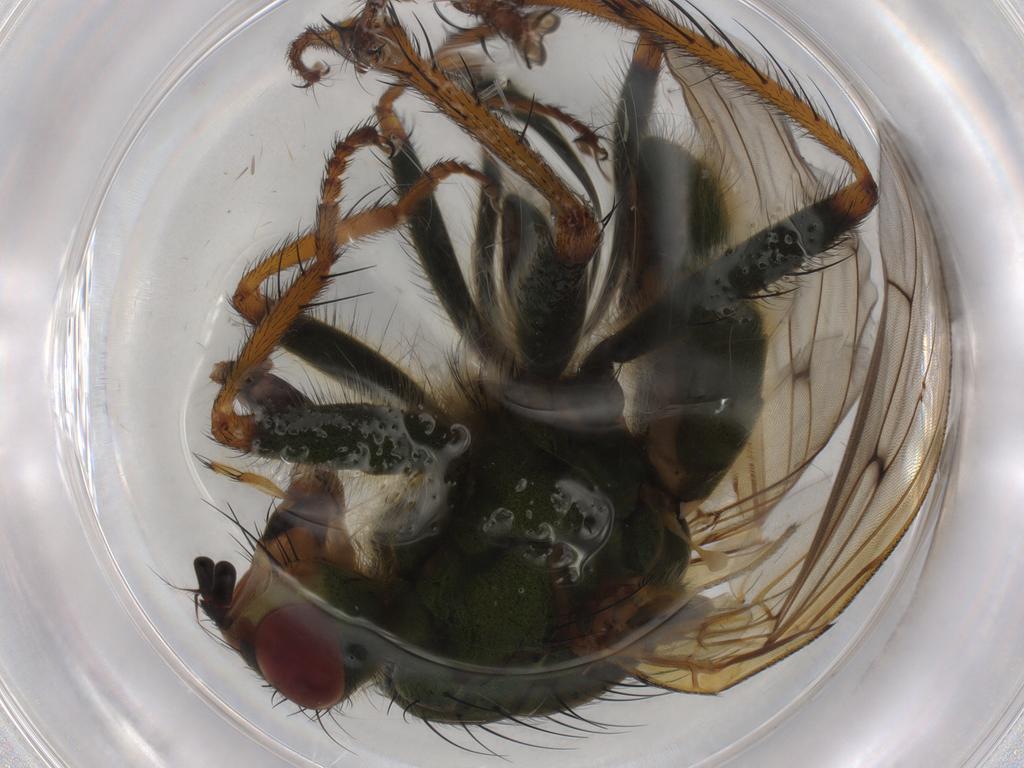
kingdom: Animalia
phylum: Arthropoda
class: Insecta
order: Diptera
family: Scathophagidae
